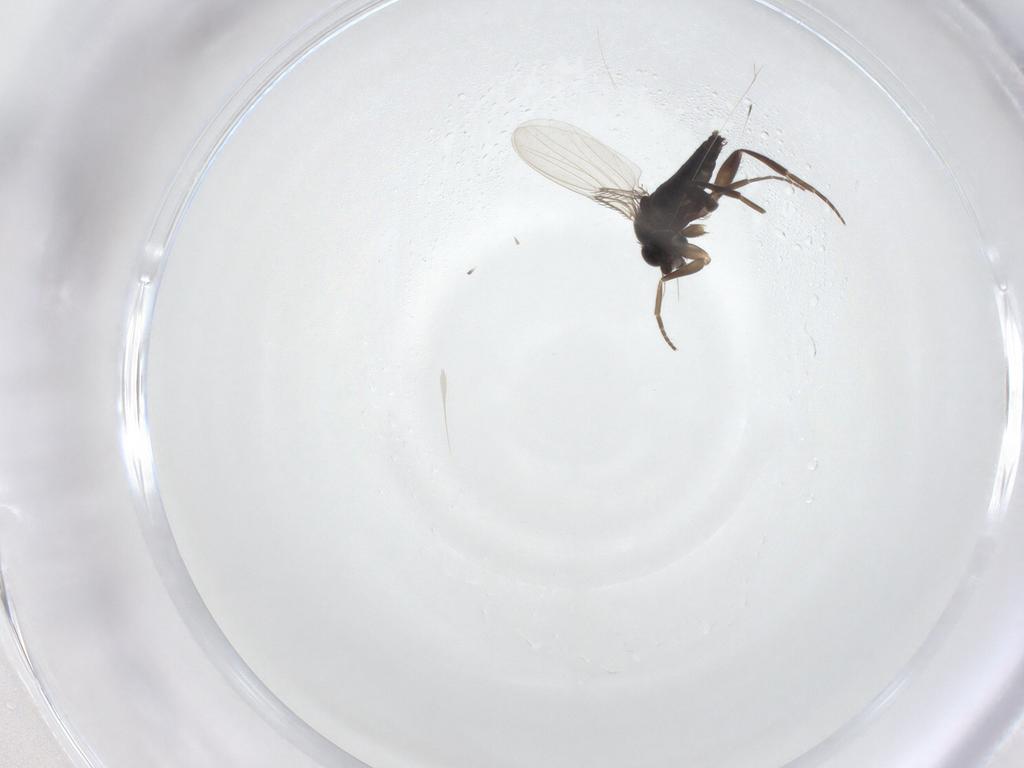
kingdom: Animalia
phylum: Arthropoda
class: Insecta
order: Diptera
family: Phoridae
